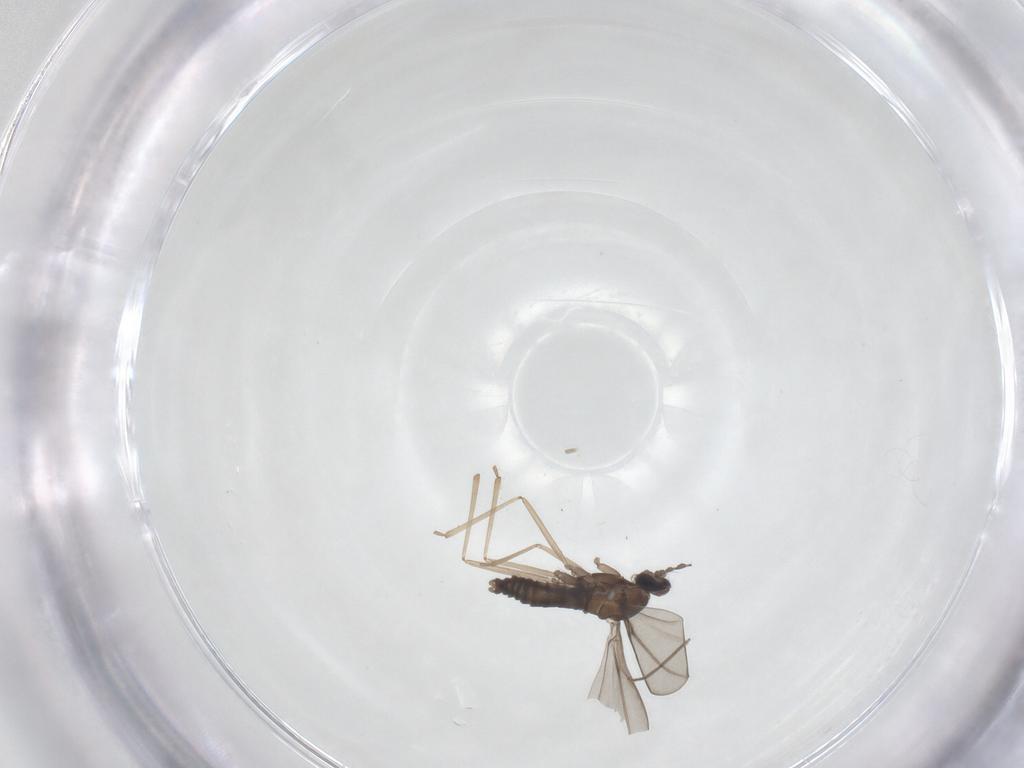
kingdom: Animalia
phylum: Arthropoda
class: Insecta
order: Diptera
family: Cecidomyiidae
